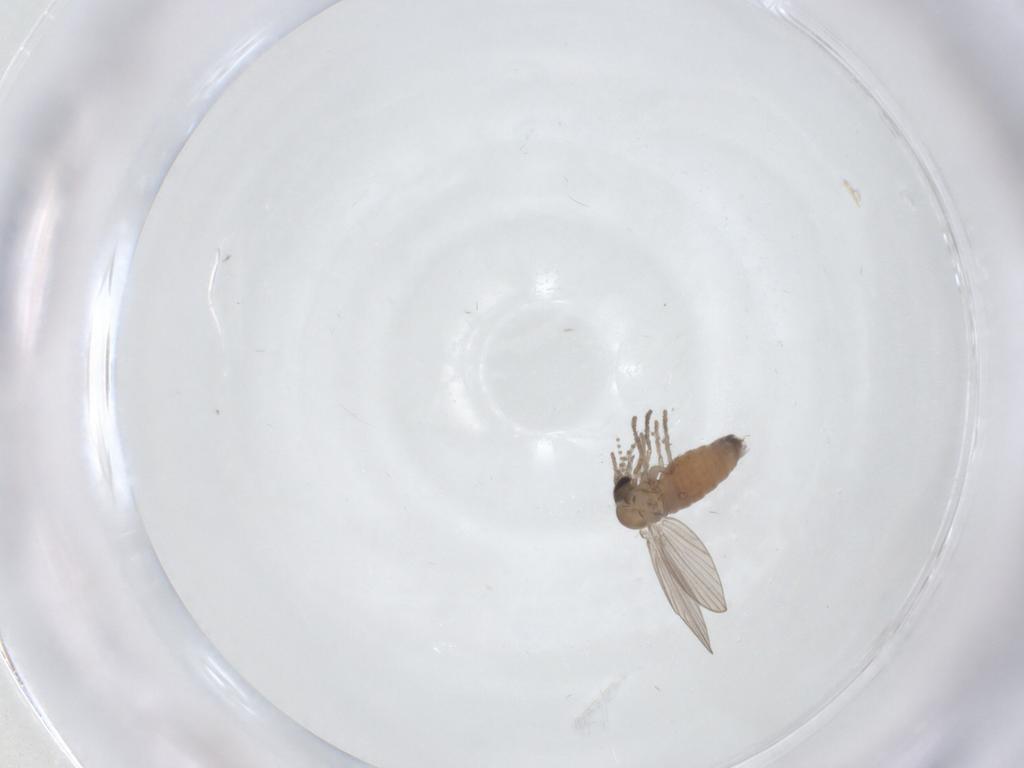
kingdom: Animalia
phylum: Arthropoda
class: Insecta
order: Diptera
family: Psychodidae
